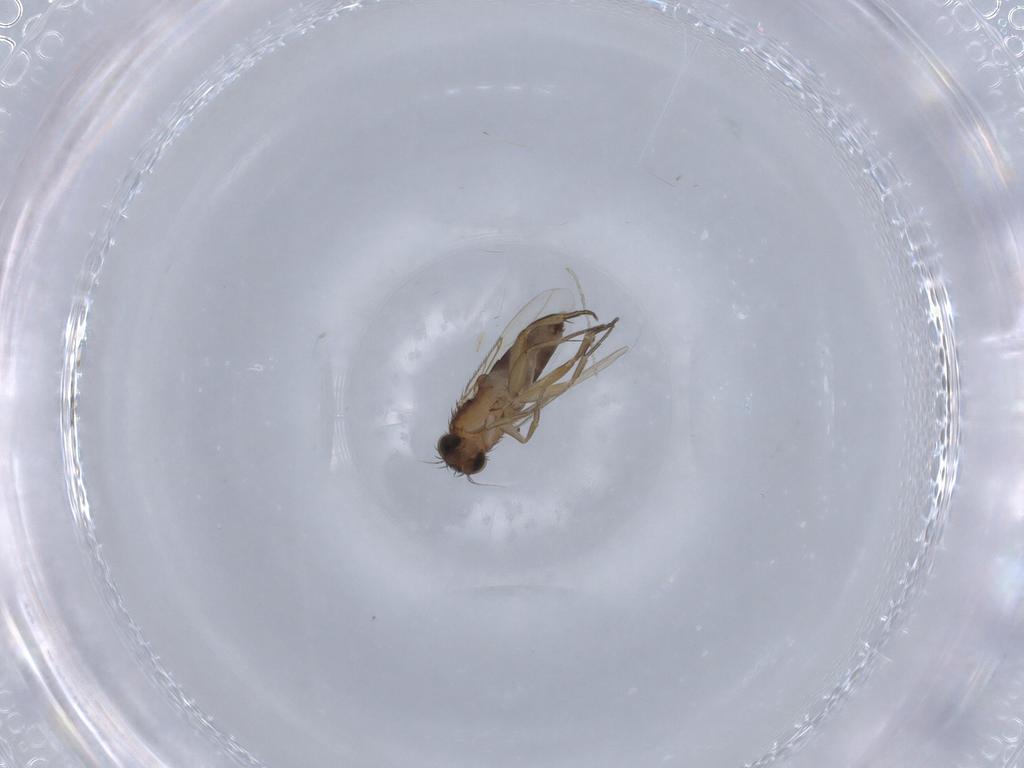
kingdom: Animalia
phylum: Arthropoda
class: Insecta
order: Diptera
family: Phoridae
